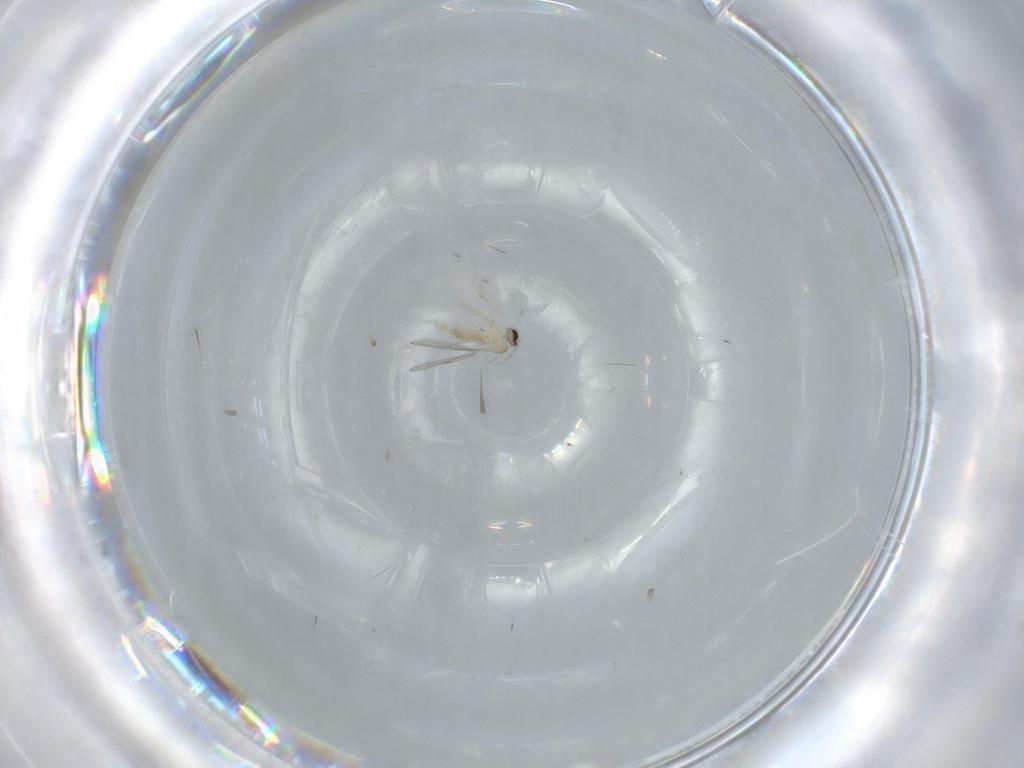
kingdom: Animalia
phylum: Arthropoda
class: Insecta
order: Diptera
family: Cecidomyiidae
